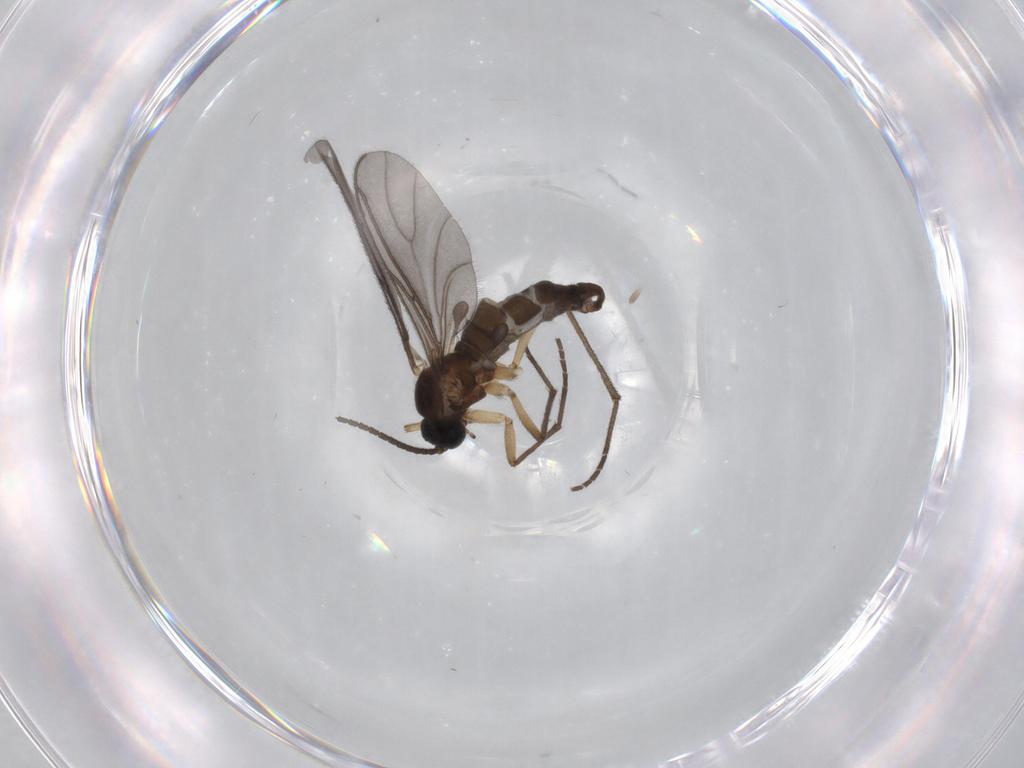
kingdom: Animalia
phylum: Arthropoda
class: Insecta
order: Diptera
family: Sciaridae
